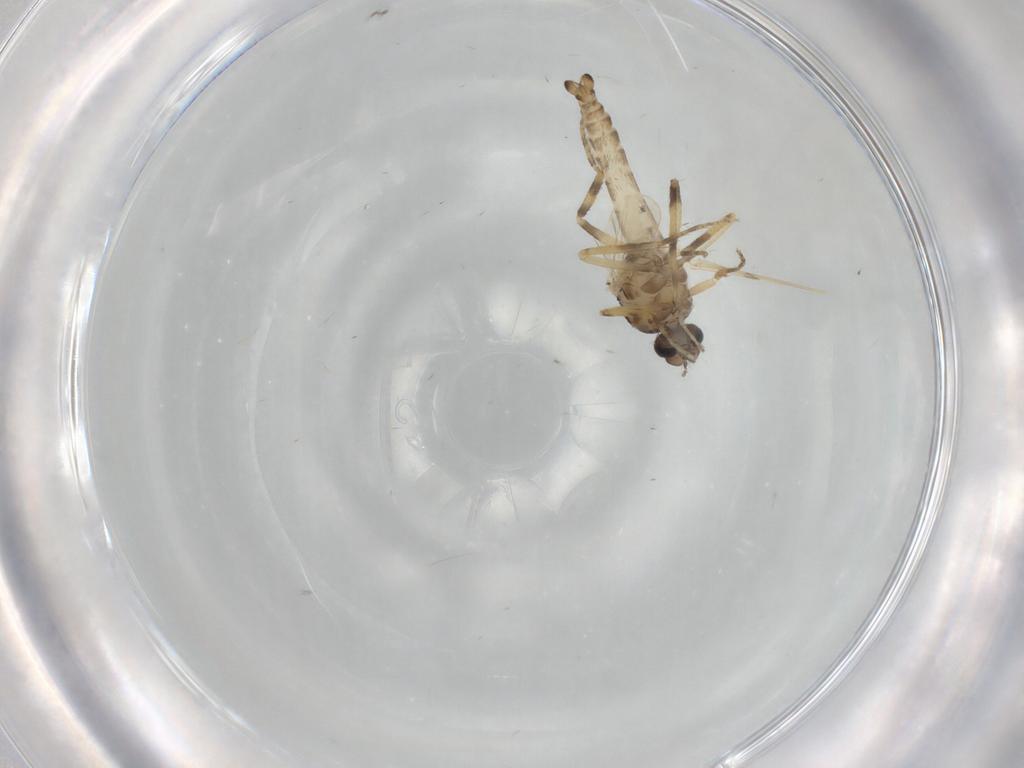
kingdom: Animalia
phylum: Arthropoda
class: Insecta
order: Diptera
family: Ceratopogonidae
